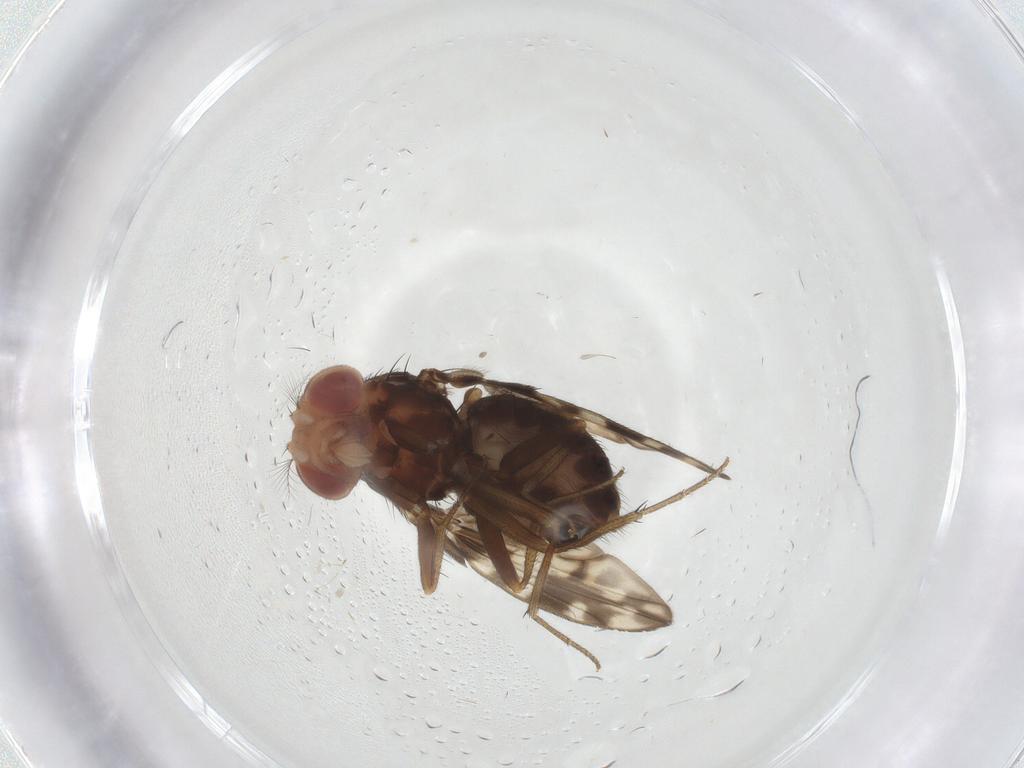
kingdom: Animalia
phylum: Arthropoda
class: Insecta
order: Diptera
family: Drosophilidae
